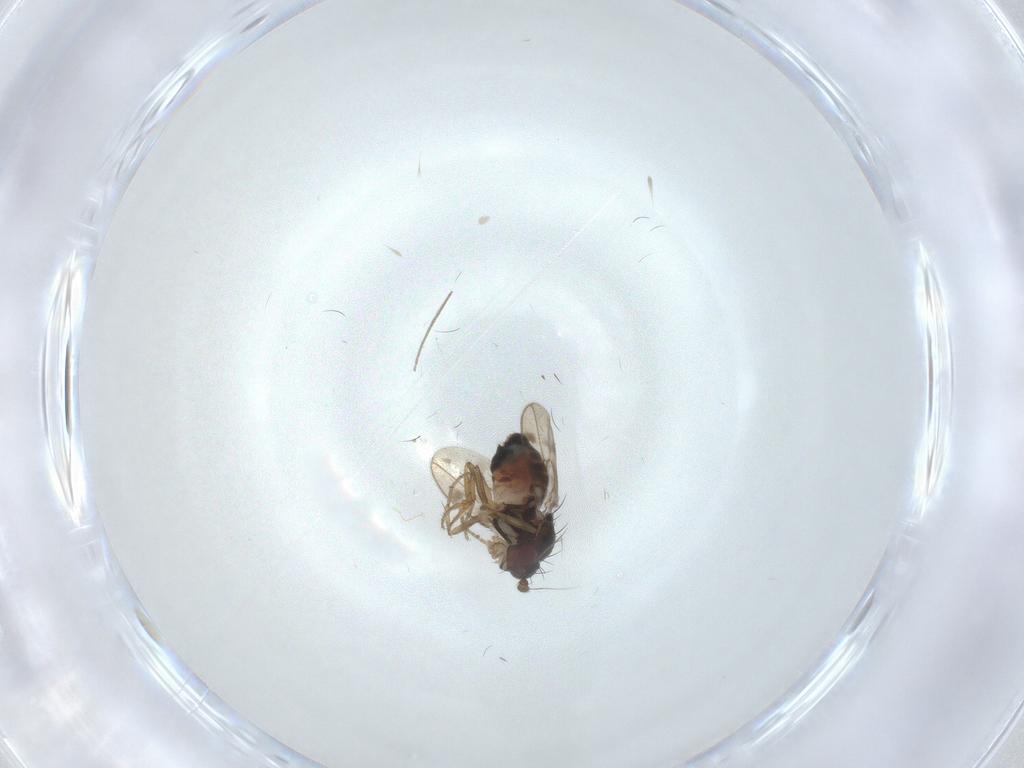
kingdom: Animalia
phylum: Arthropoda
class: Insecta
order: Diptera
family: Sphaeroceridae
